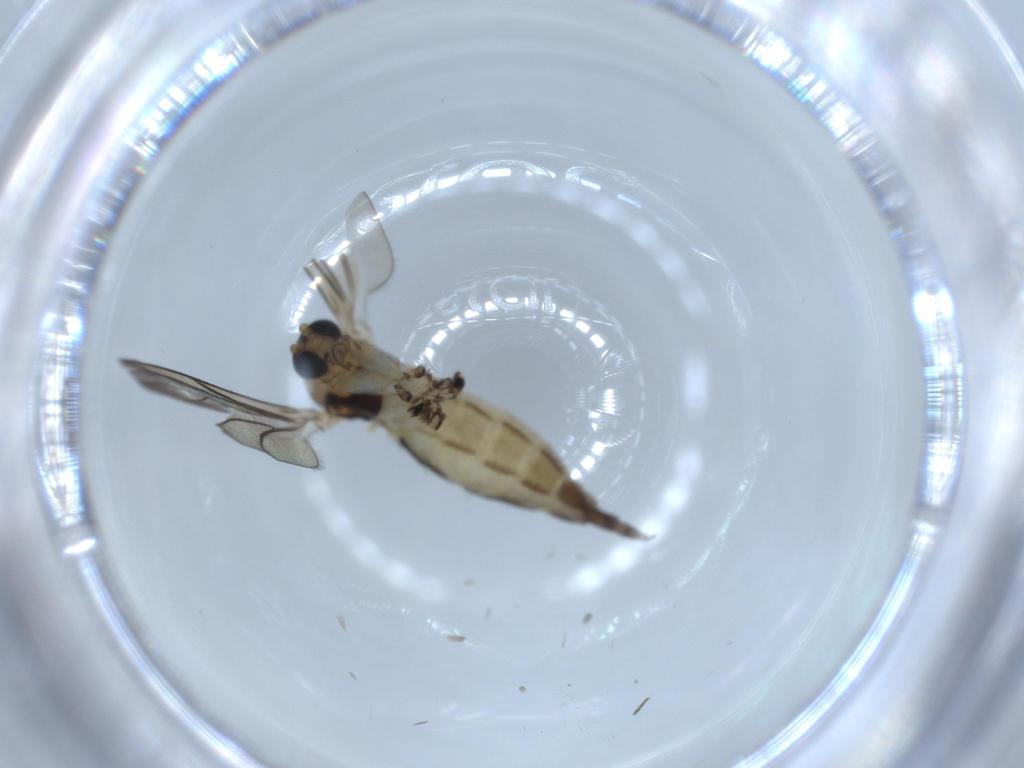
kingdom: Animalia
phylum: Arthropoda
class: Insecta
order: Diptera
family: Sciaridae
